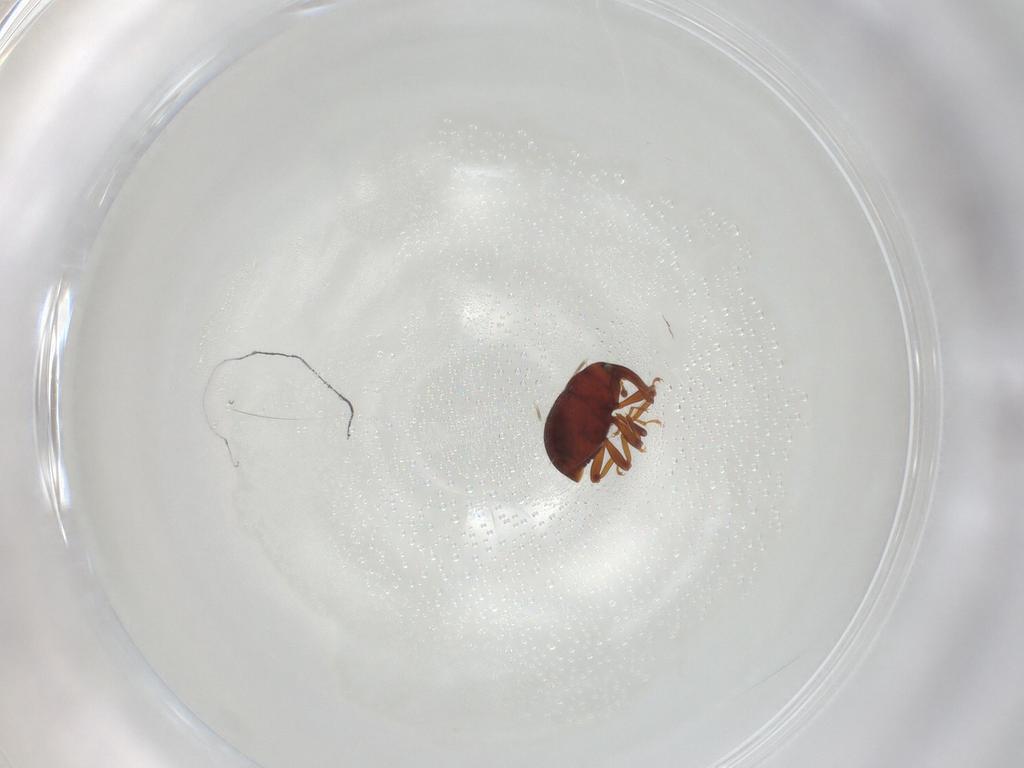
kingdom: Animalia
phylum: Arthropoda
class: Insecta
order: Coleoptera
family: Curculionidae
